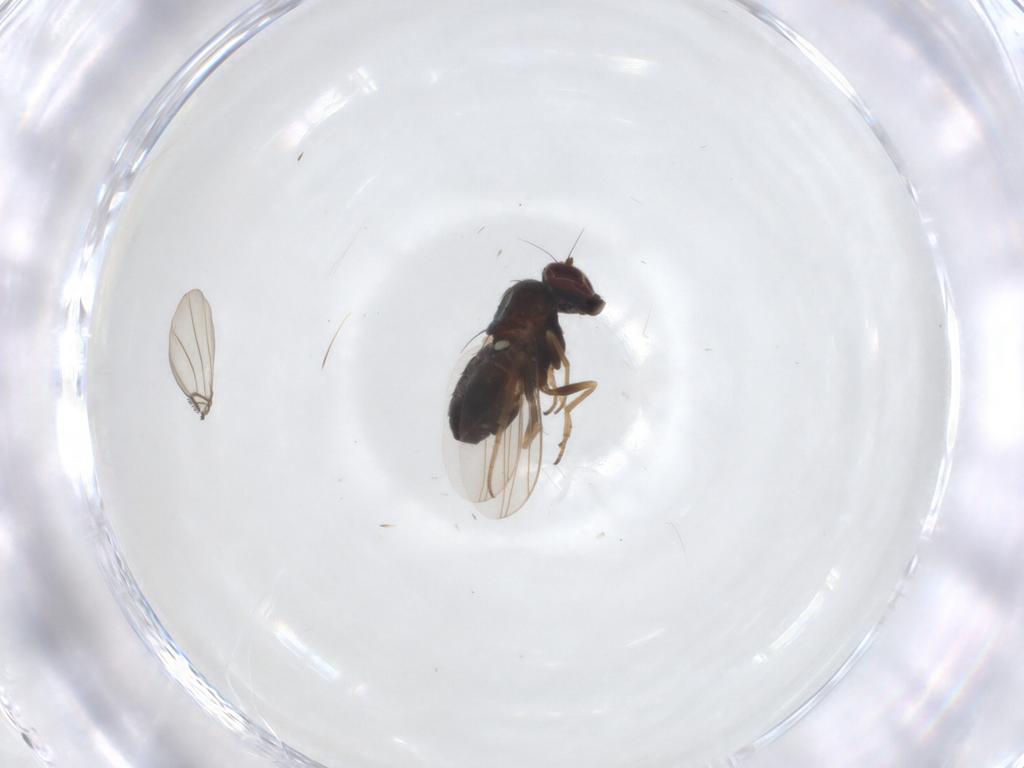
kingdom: Animalia
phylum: Arthropoda
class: Insecta
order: Diptera
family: Dolichopodidae
